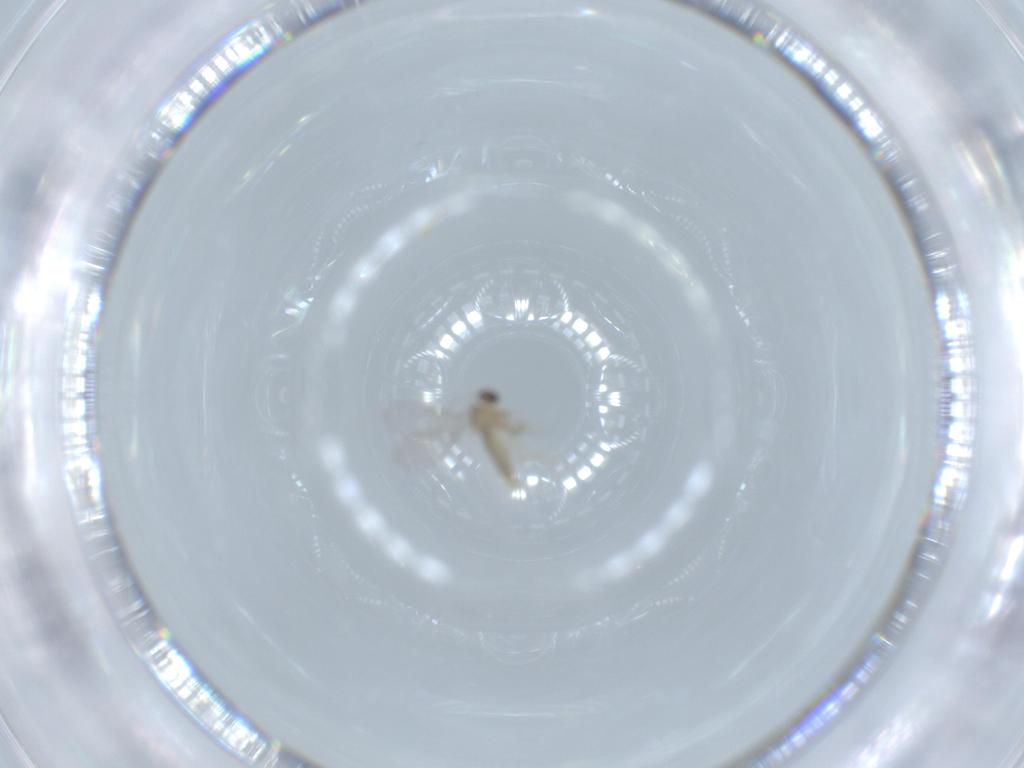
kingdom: Animalia
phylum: Arthropoda
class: Insecta
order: Diptera
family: Cecidomyiidae
